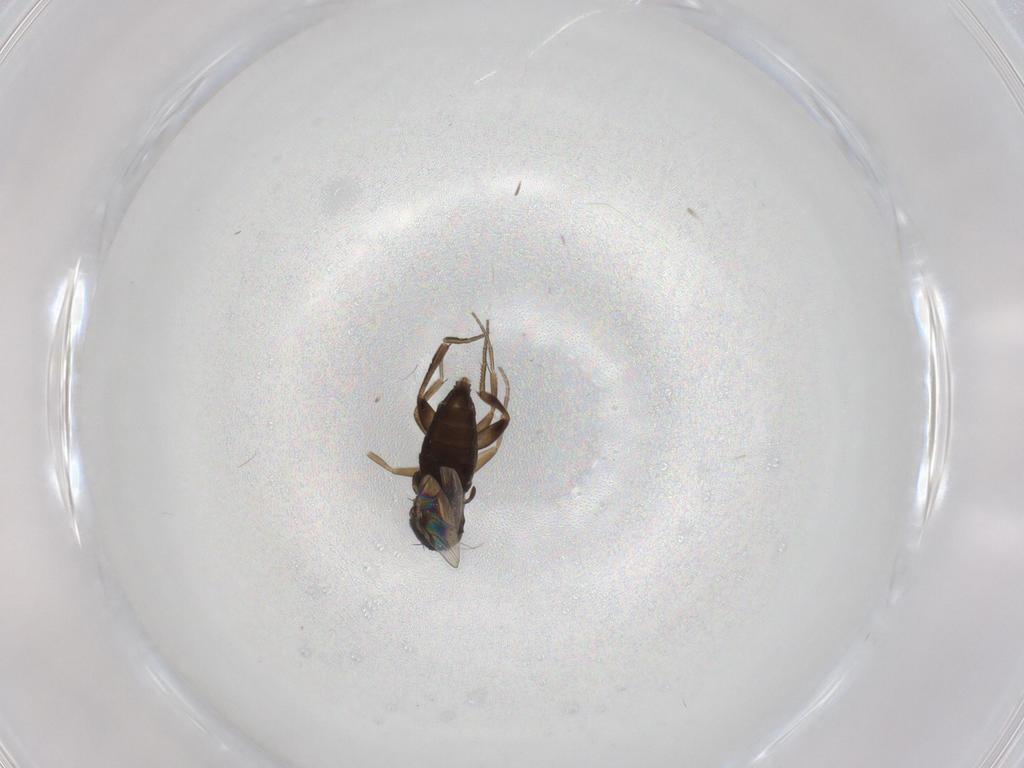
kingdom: Animalia
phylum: Arthropoda
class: Insecta
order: Diptera
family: Phoridae
